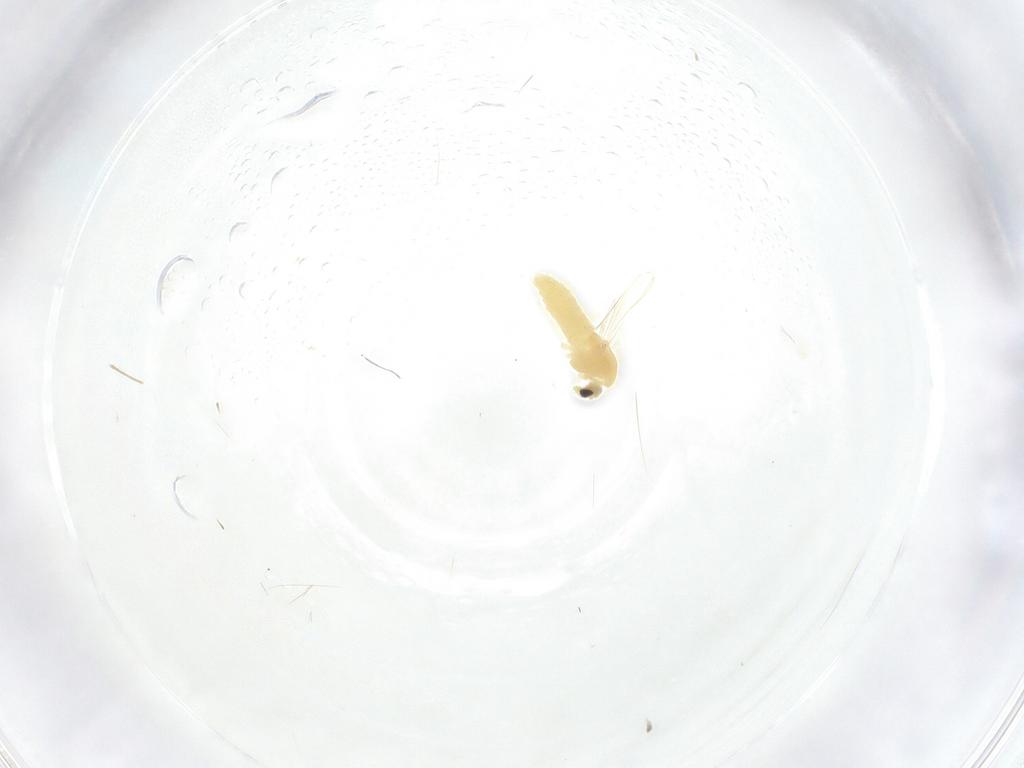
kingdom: Animalia
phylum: Arthropoda
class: Insecta
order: Diptera
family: Cecidomyiidae
